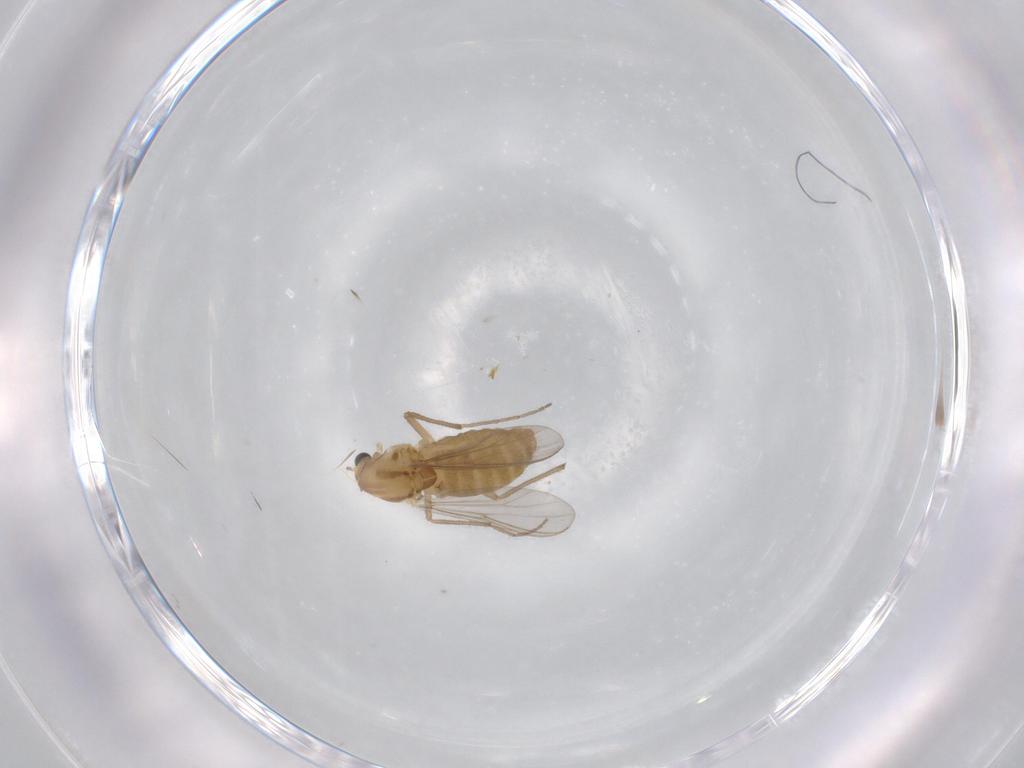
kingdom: Animalia
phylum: Arthropoda
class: Insecta
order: Diptera
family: Chironomidae
